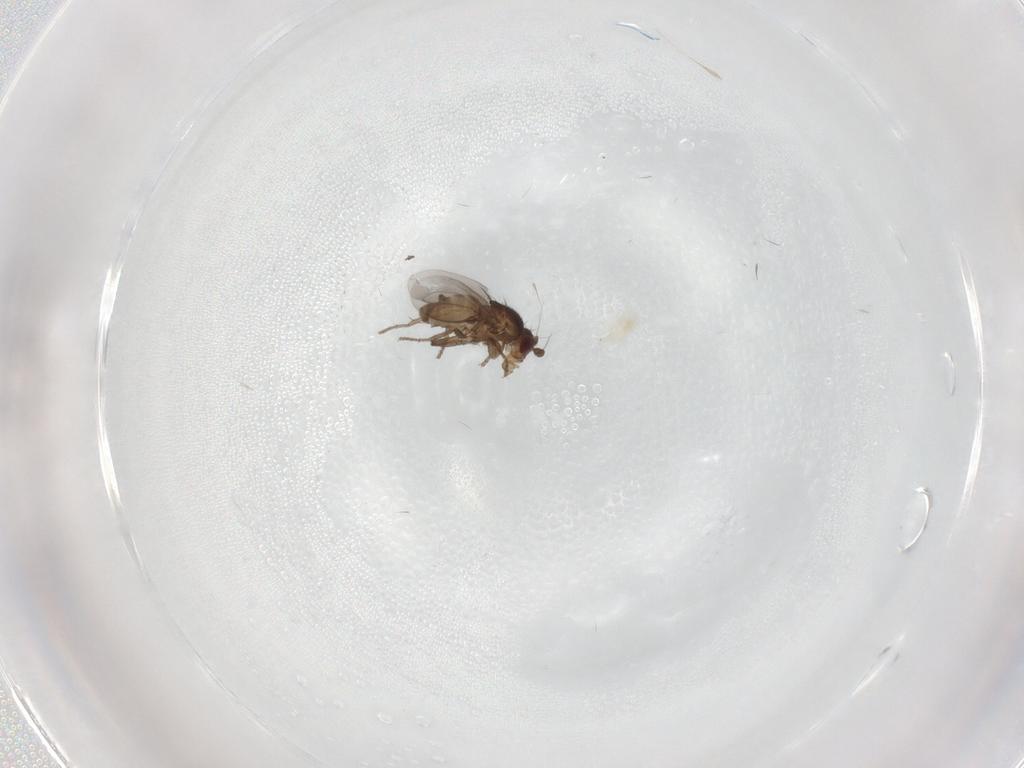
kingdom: Animalia
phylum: Arthropoda
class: Insecta
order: Diptera
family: Sphaeroceridae
